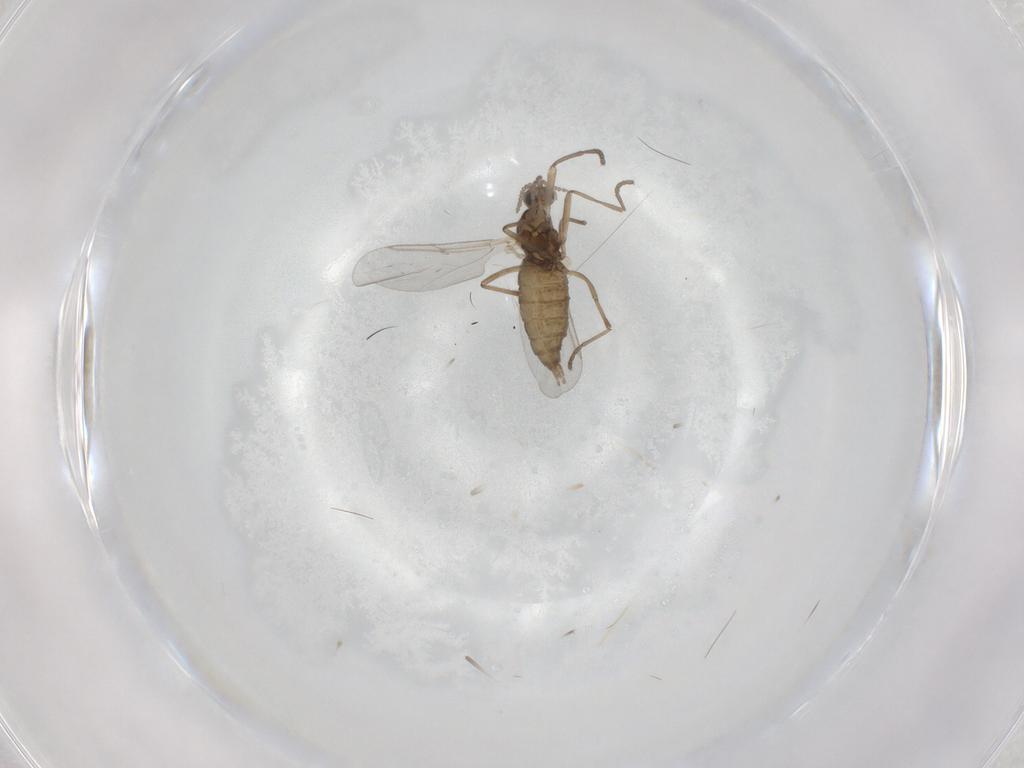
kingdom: Animalia
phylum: Arthropoda
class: Insecta
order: Diptera
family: Cecidomyiidae
